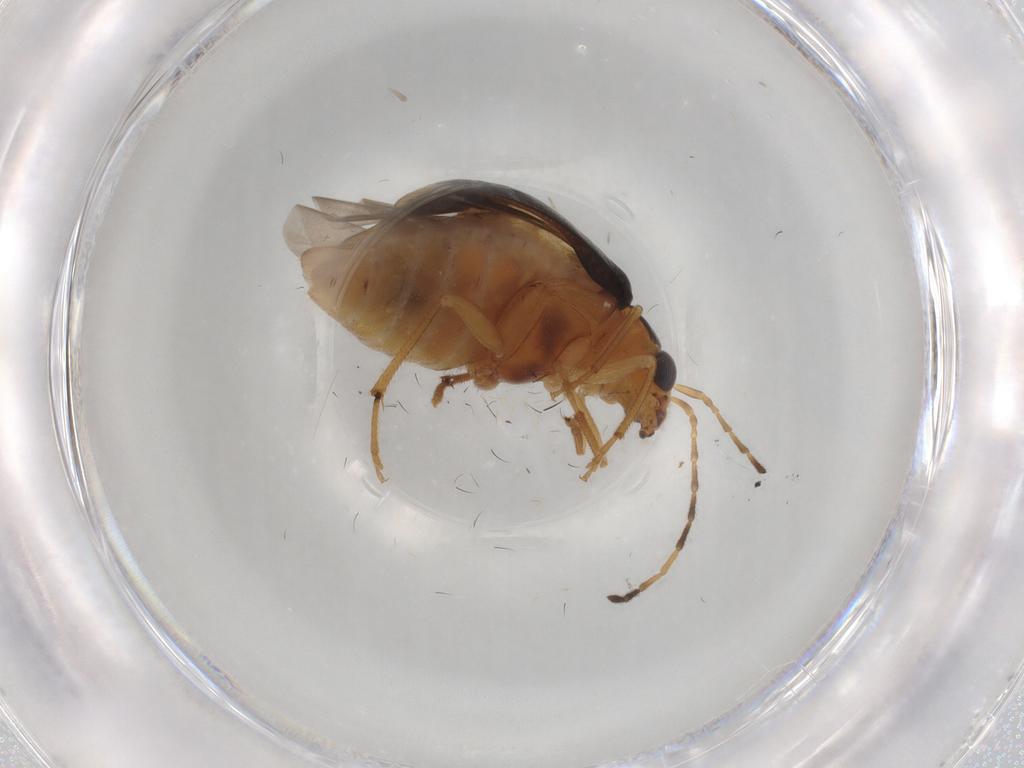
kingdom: Animalia
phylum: Arthropoda
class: Insecta
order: Coleoptera
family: Chrysomelidae
